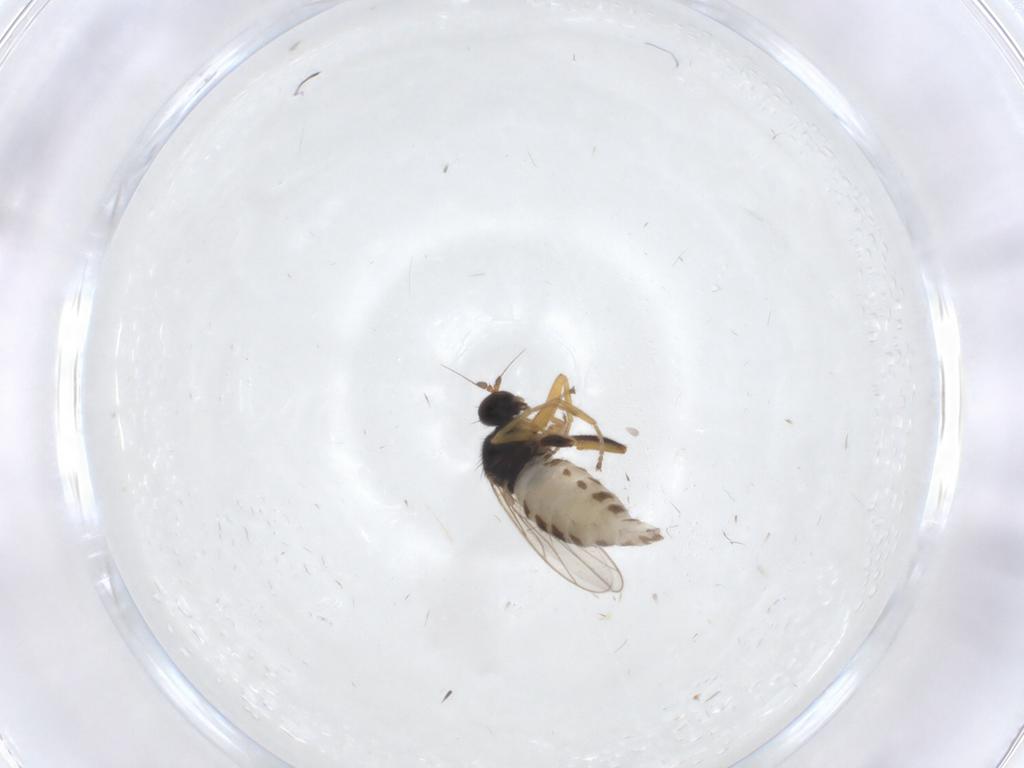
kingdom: Animalia
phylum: Arthropoda
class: Insecta
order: Diptera
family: Hybotidae
